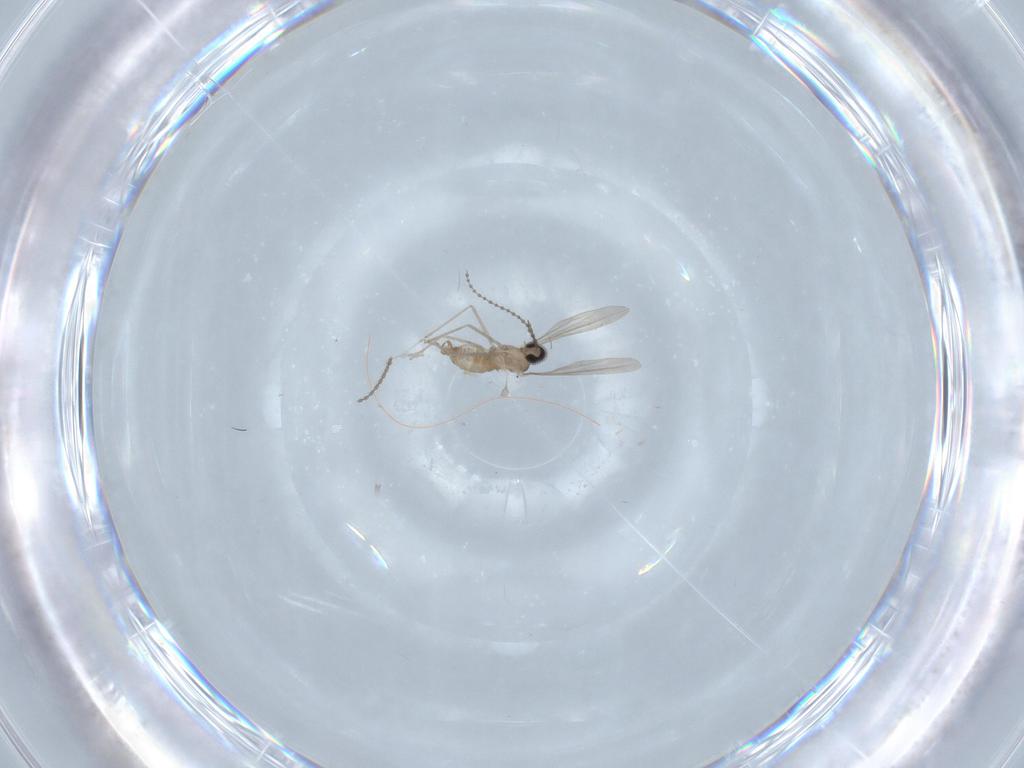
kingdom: Animalia
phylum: Arthropoda
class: Insecta
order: Diptera
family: Cecidomyiidae
